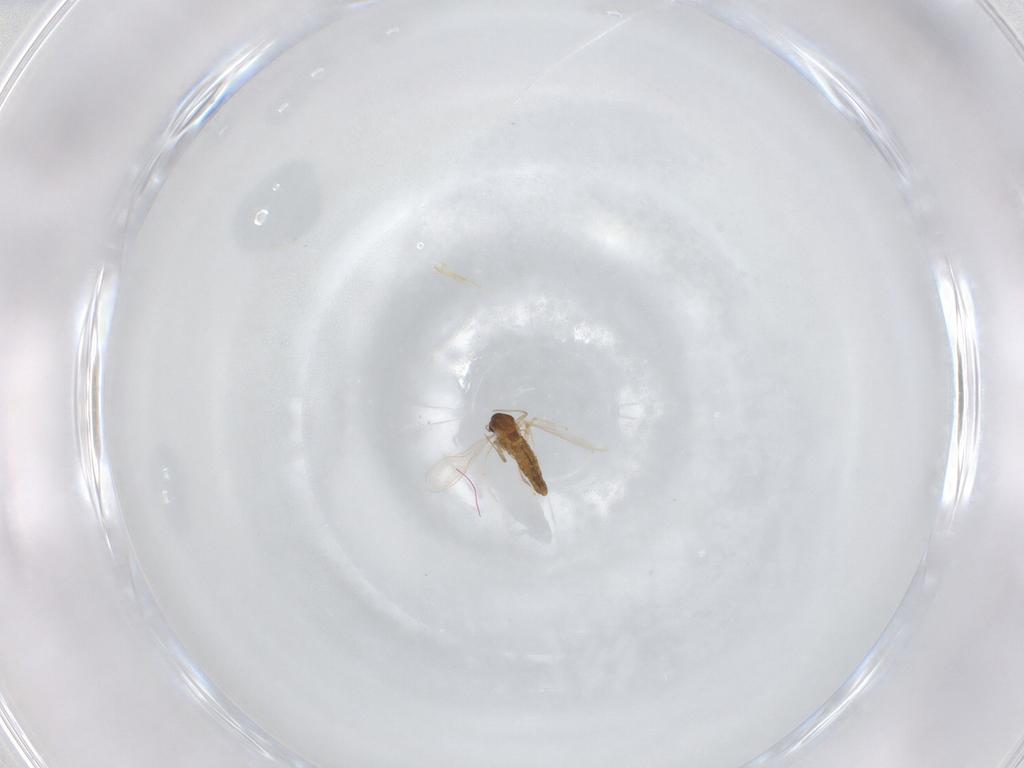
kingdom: Animalia
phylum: Arthropoda
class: Insecta
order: Diptera
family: Chironomidae
